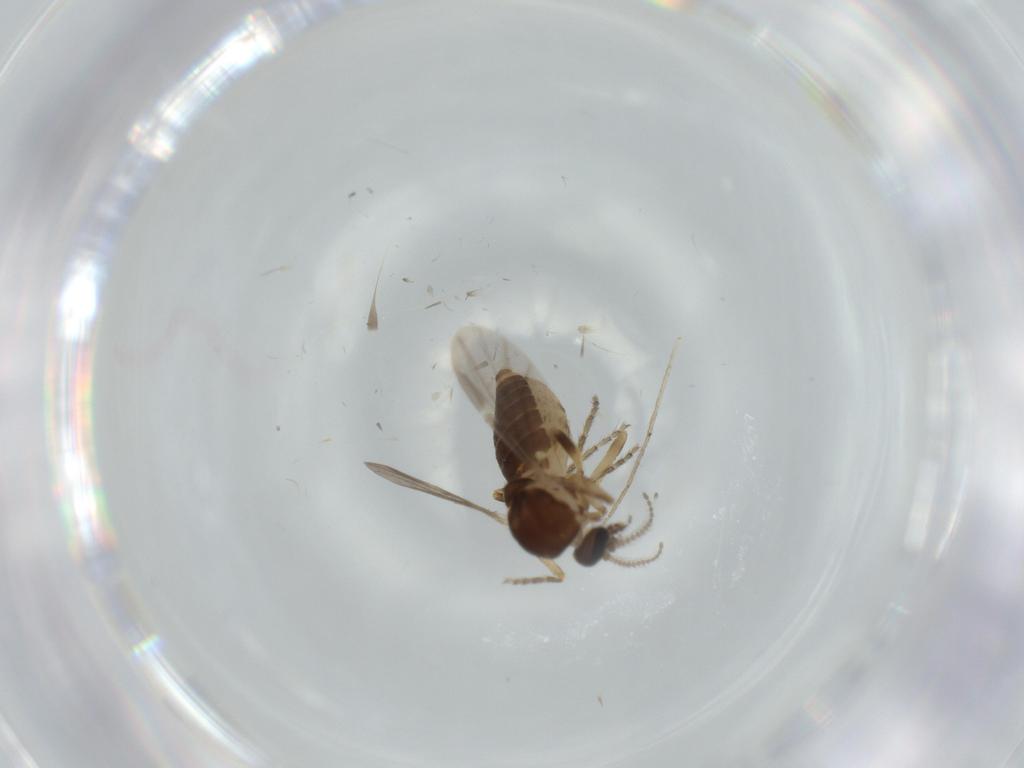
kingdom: Animalia
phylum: Arthropoda
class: Insecta
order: Diptera
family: Ceratopogonidae
